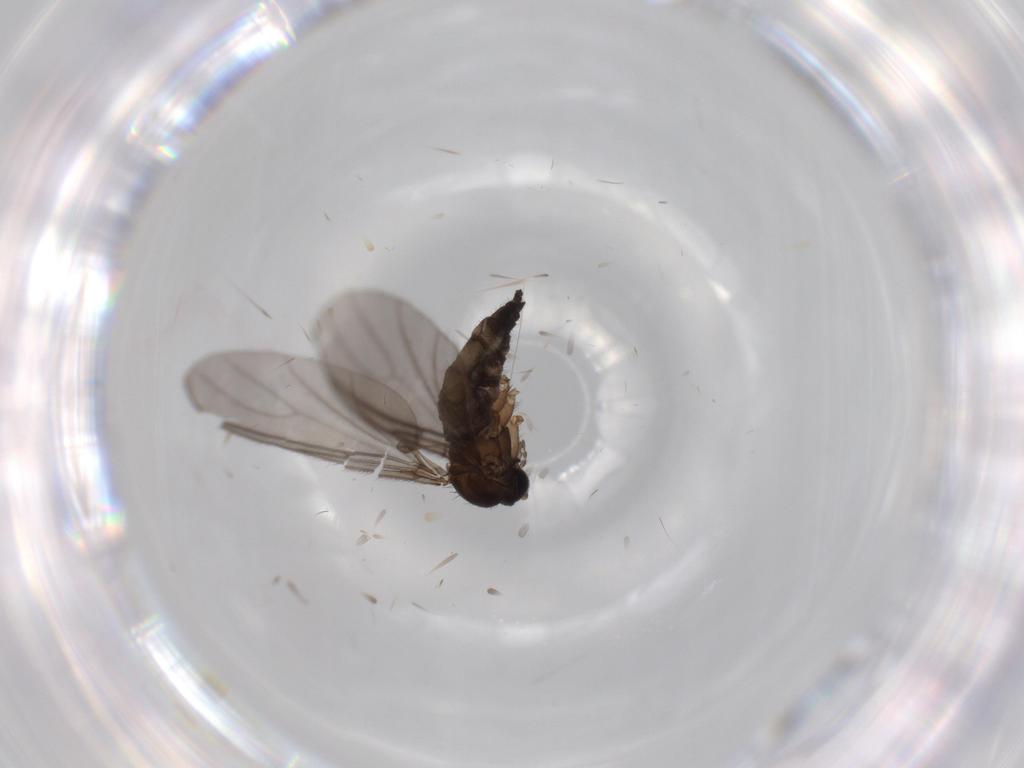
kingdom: Animalia
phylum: Arthropoda
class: Insecta
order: Diptera
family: Sciaridae
